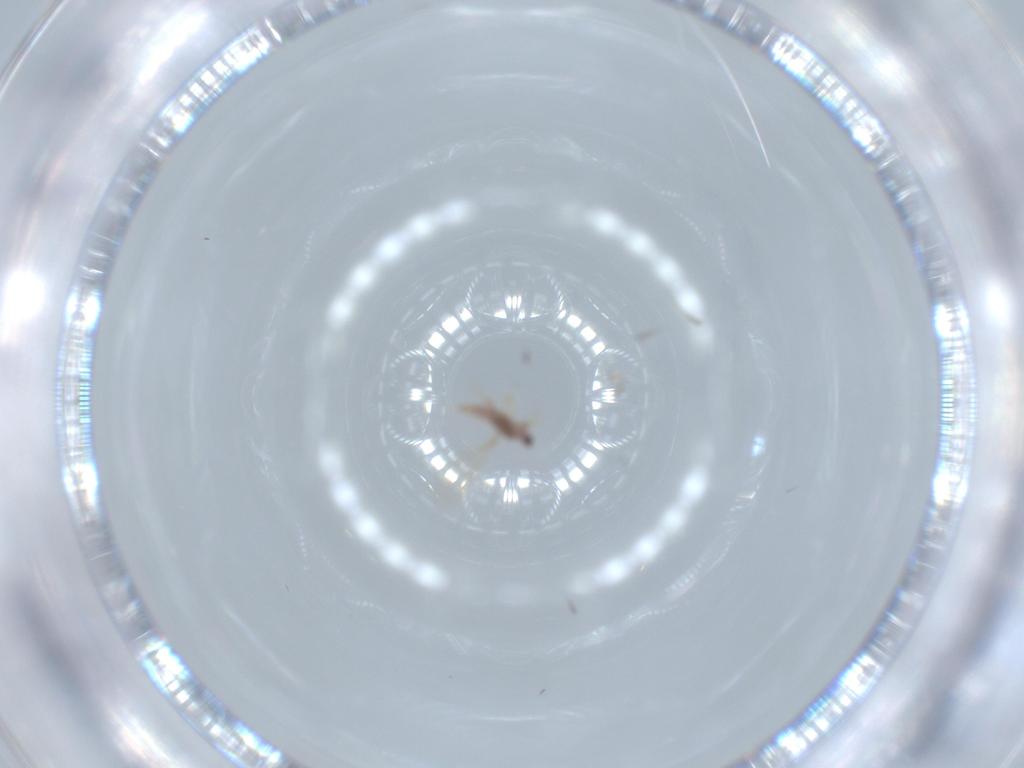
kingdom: Animalia
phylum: Arthropoda
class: Insecta
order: Hemiptera
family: Diaspididae
